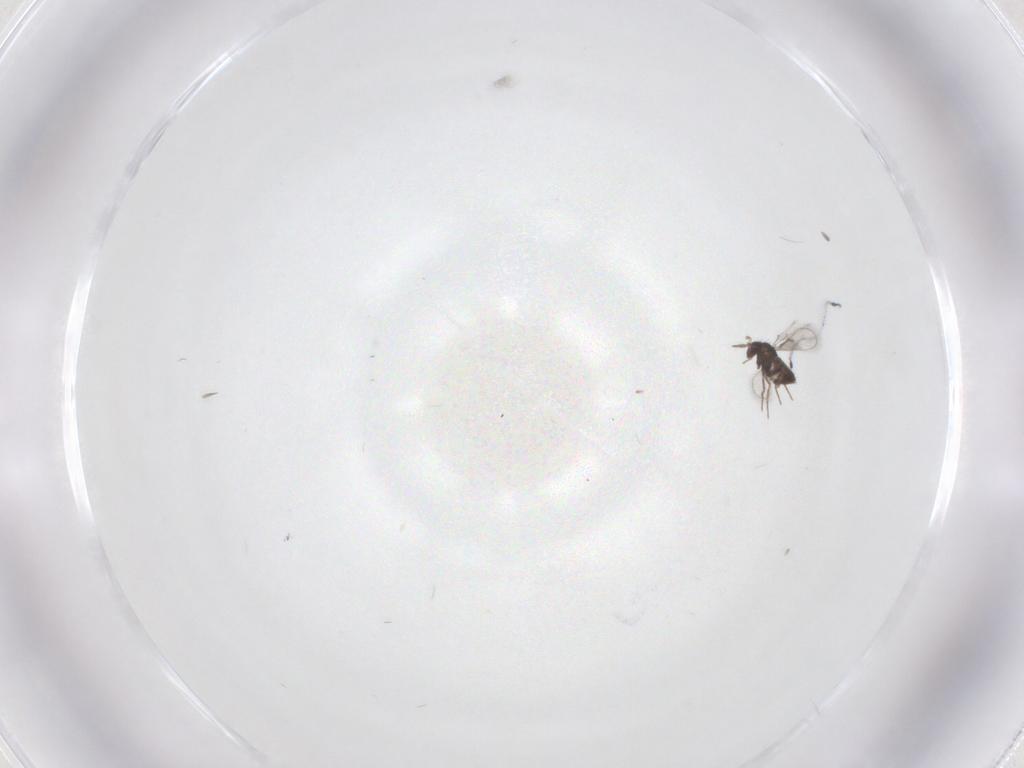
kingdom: Animalia
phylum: Arthropoda
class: Insecta
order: Hymenoptera
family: Trichogrammatidae
